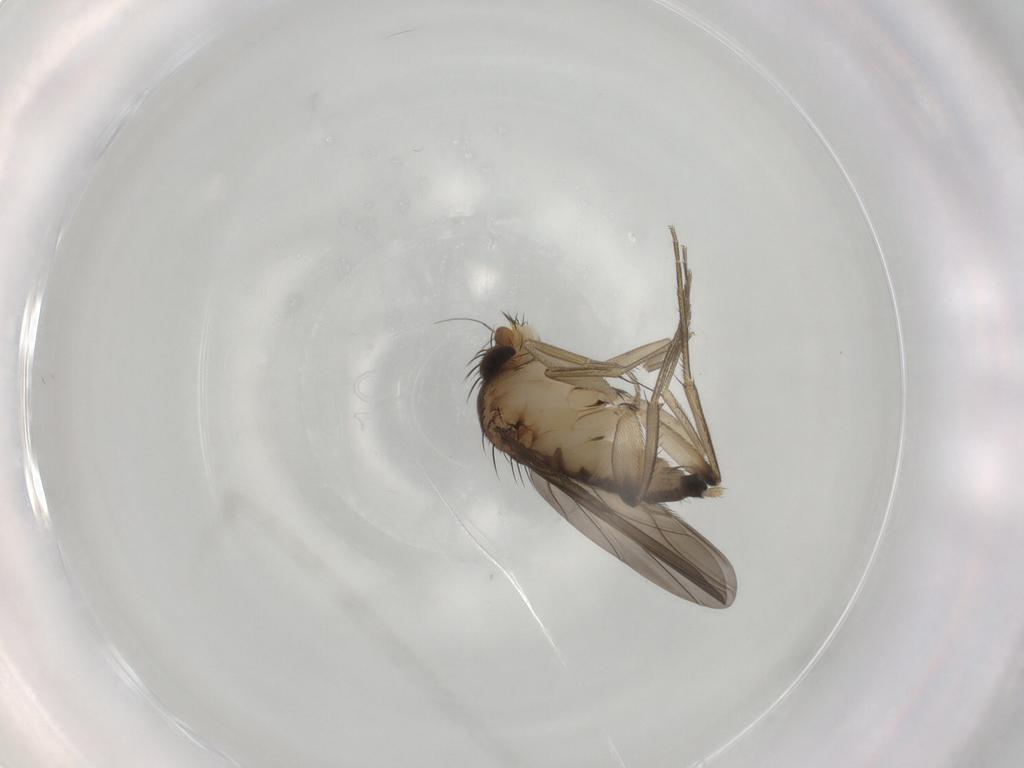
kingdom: Animalia
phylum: Arthropoda
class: Insecta
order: Diptera
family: Phoridae
